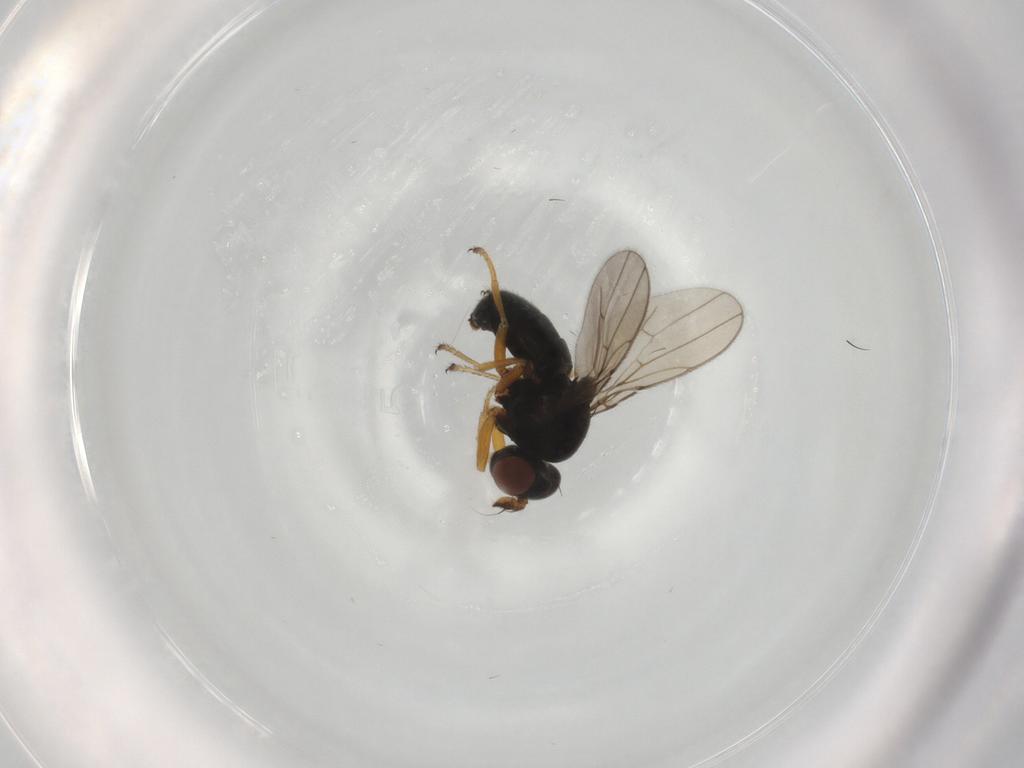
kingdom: Animalia
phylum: Arthropoda
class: Insecta
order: Diptera
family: Ephydridae
